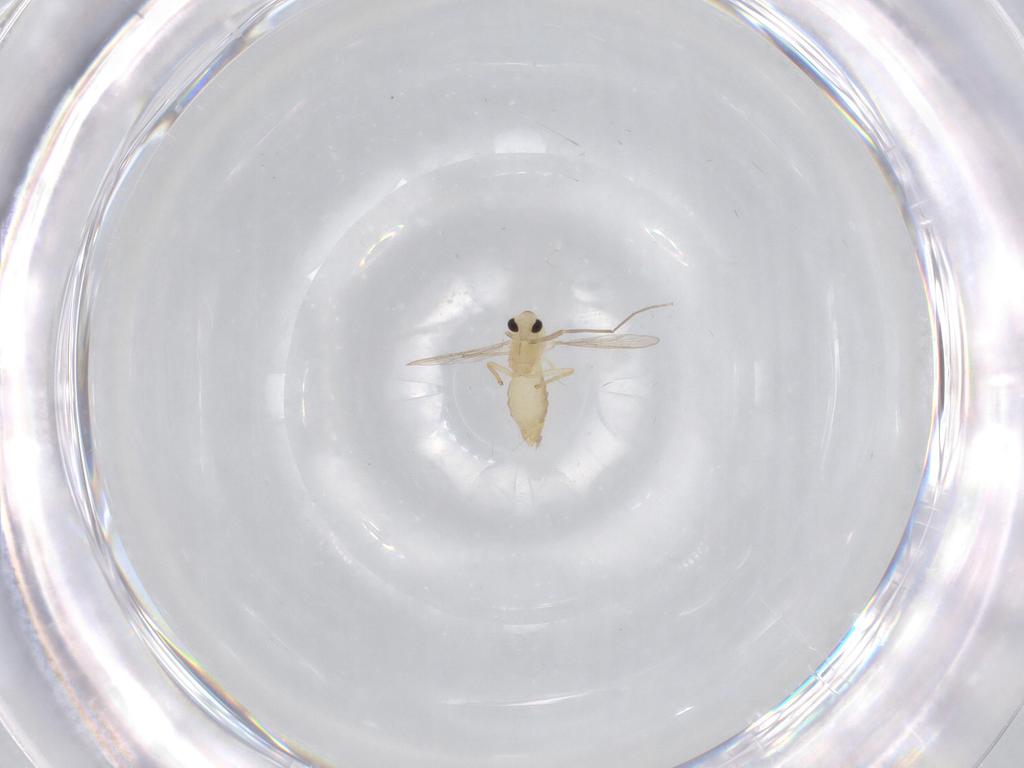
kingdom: Animalia
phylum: Arthropoda
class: Insecta
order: Diptera
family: Chironomidae
